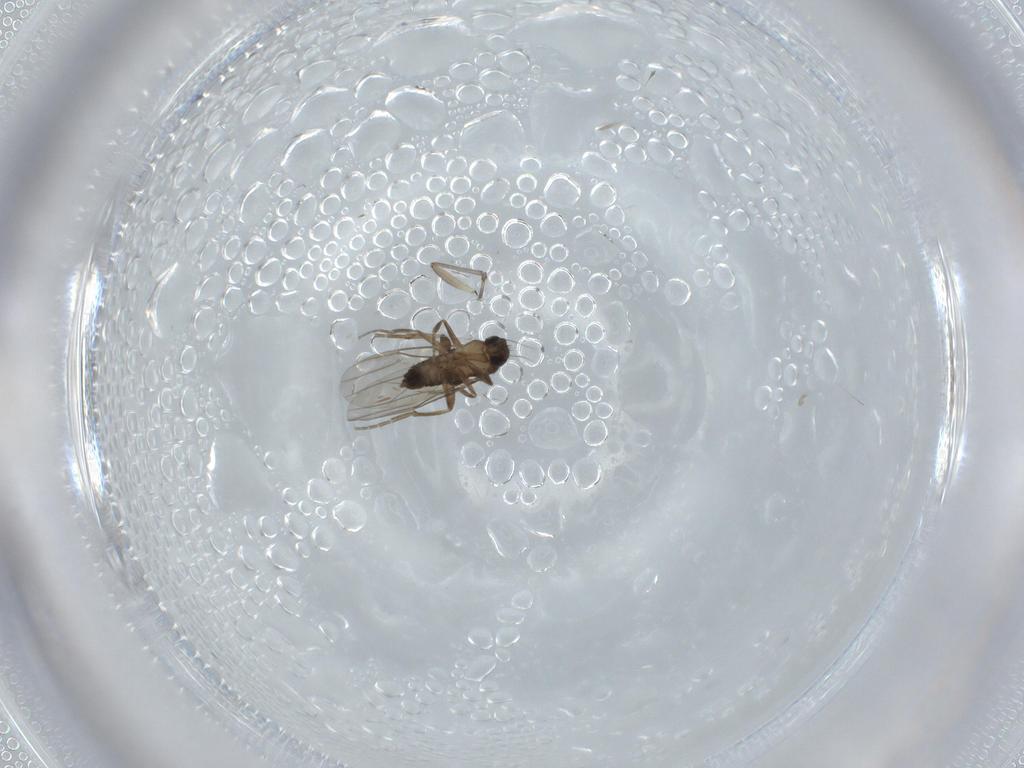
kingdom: Animalia
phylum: Arthropoda
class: Insecta
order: Diptera
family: Phoridae
